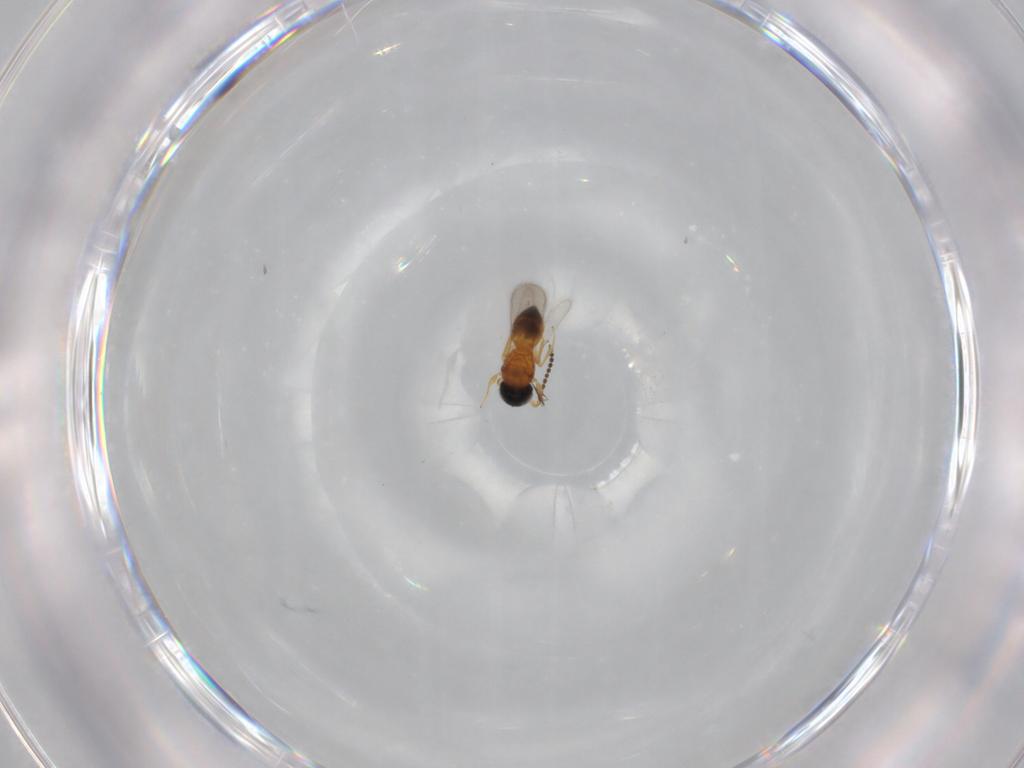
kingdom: Animalia
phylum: Arthropoda
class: Insecta
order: Hymenoptera
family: Scelionidae
